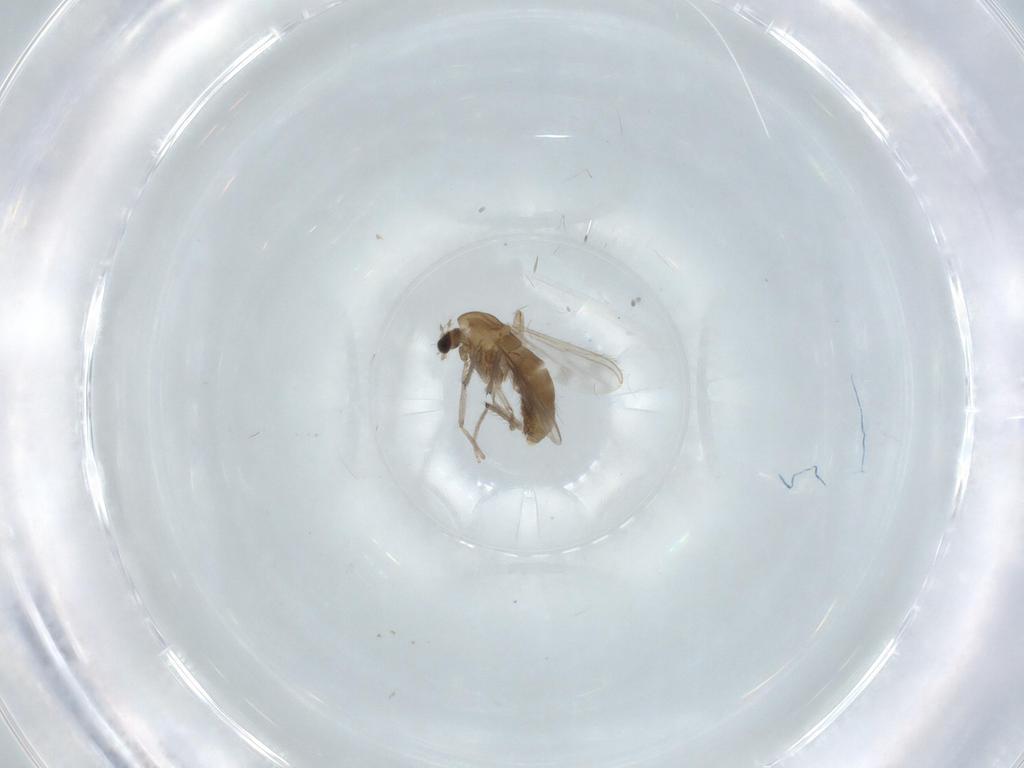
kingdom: Animalia
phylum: Arthropoda
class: Insecta
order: Diptera
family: Chironomidae
